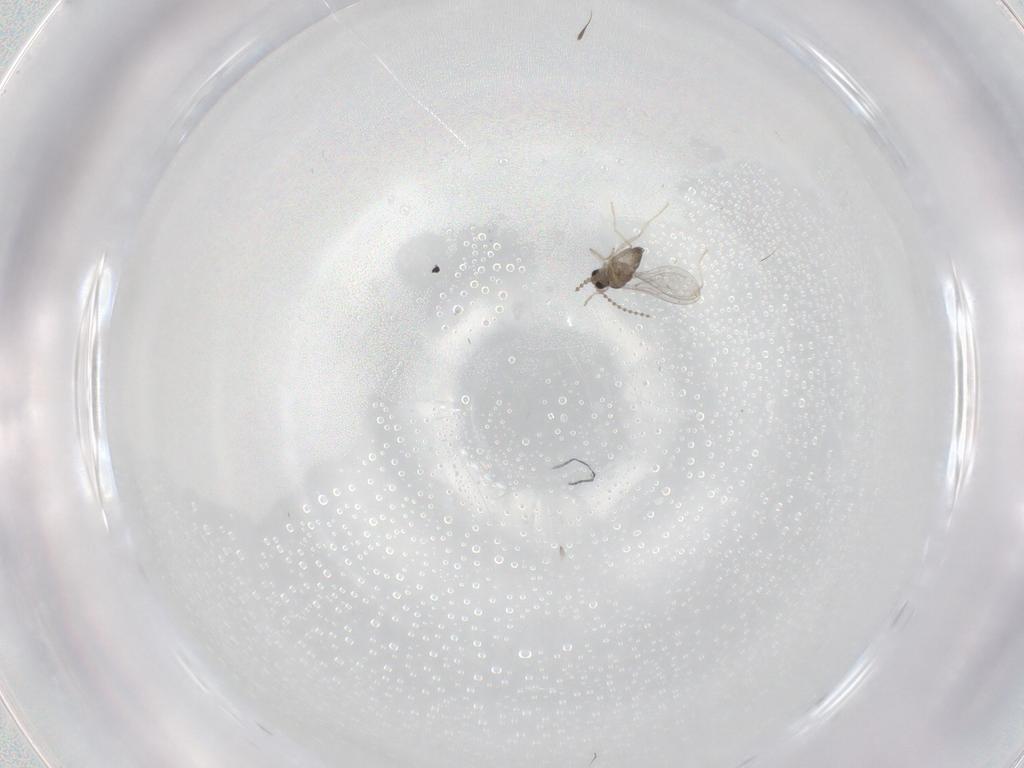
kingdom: Animalia
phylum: Arthropoda
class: Insecta
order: Diptera
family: Cecidomyiidae
